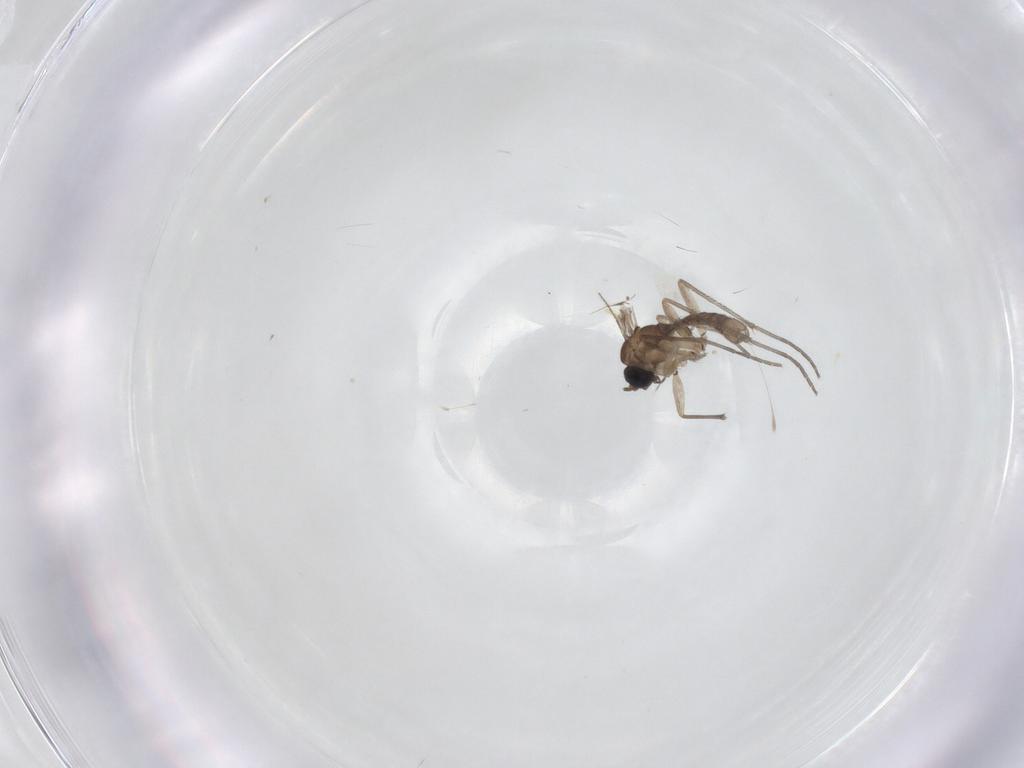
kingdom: Animalia
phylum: Arthropoda
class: Insecta
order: Diptera
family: Sciaridae
